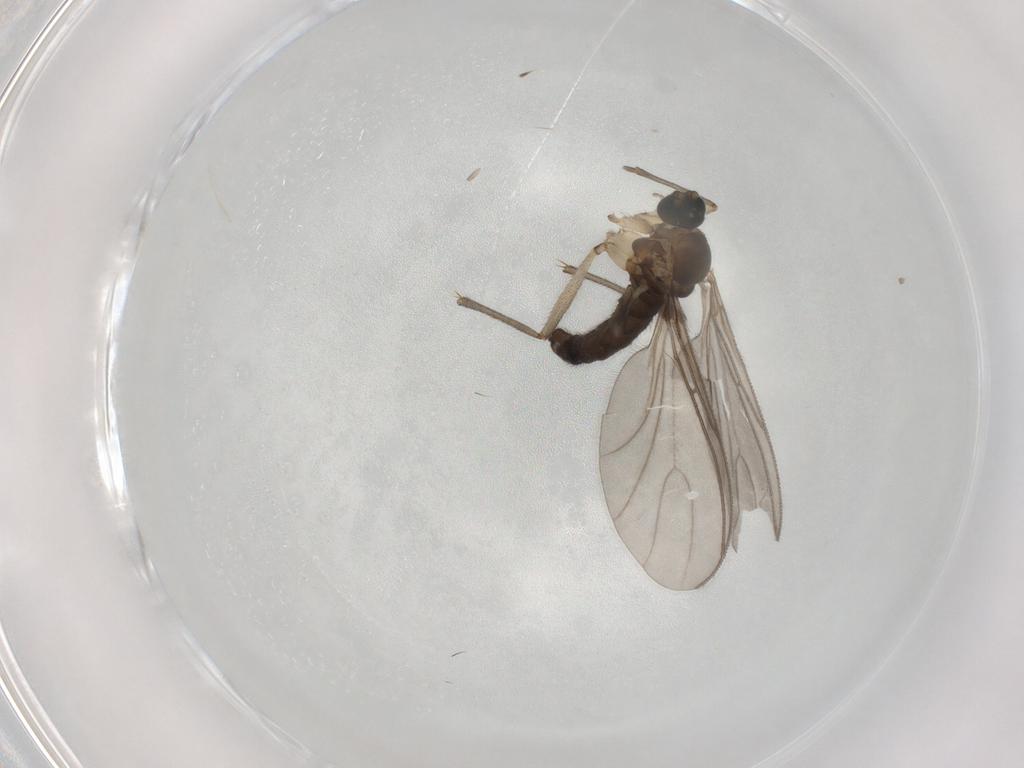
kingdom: Animalia
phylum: Arthropoda
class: Insecta
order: Diptera
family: Sciaridae
